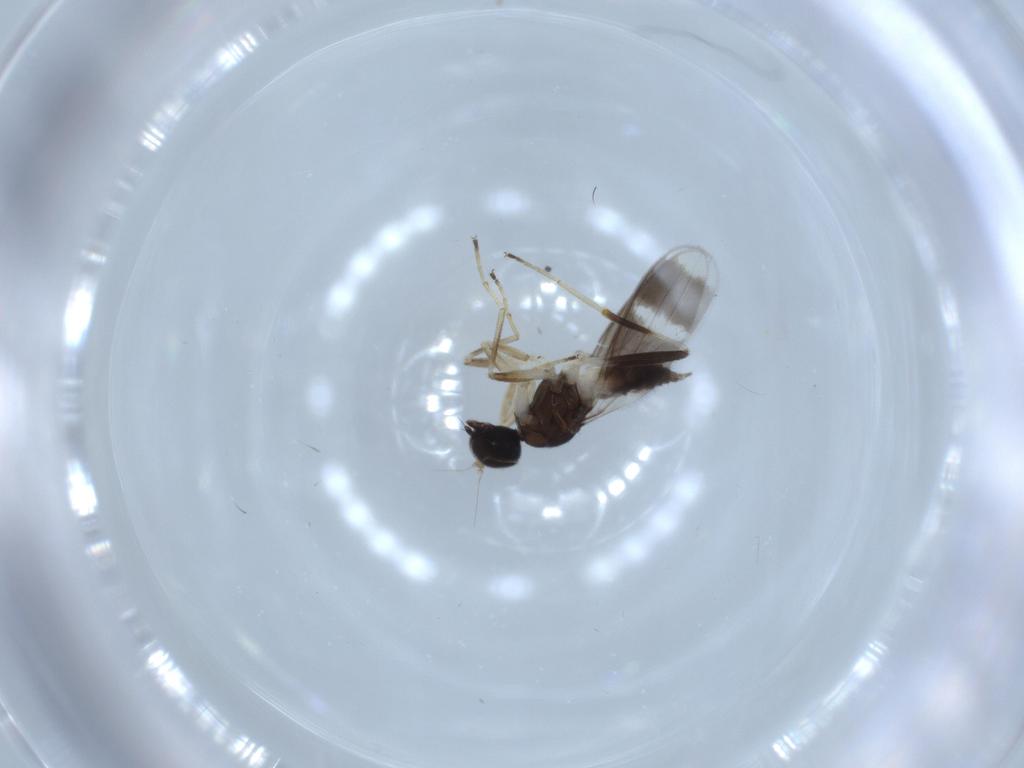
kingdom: Animalia
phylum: Arthropoda
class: Insecta
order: Diptera
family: Hybotidae
